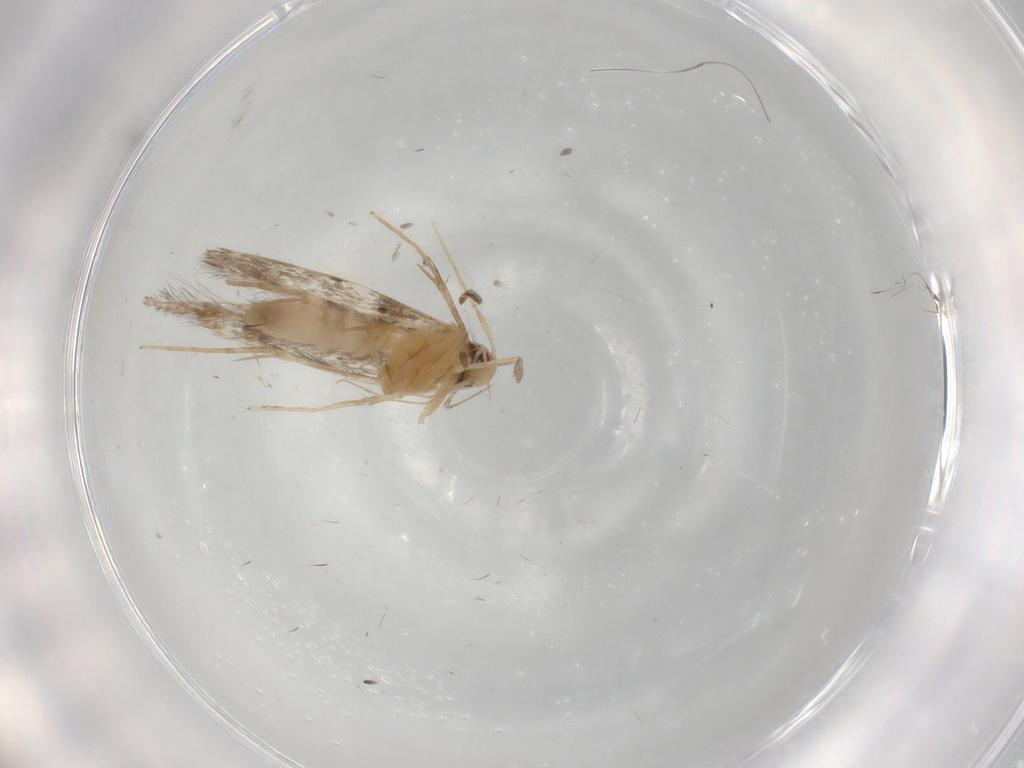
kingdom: Animalia
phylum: Arthropoda
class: Insecta
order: Lepidoptera
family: Cosmopterigidae
